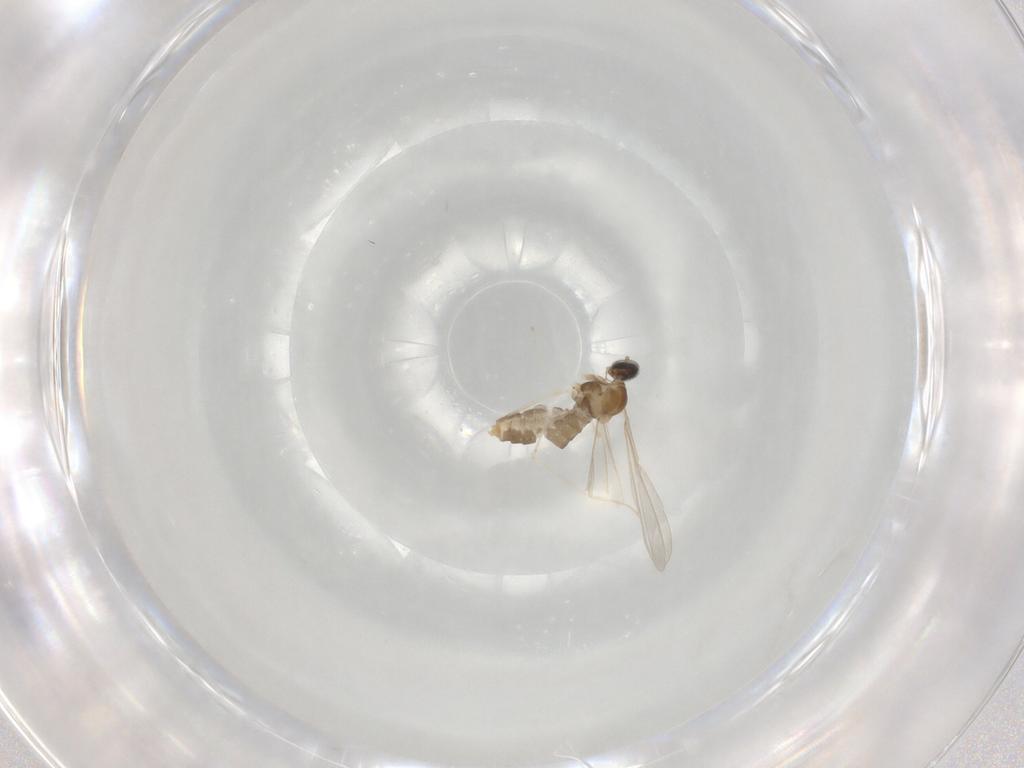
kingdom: Animalia
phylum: Arthropoda
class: Insecta
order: Diptera
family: Cecidomyiidae
